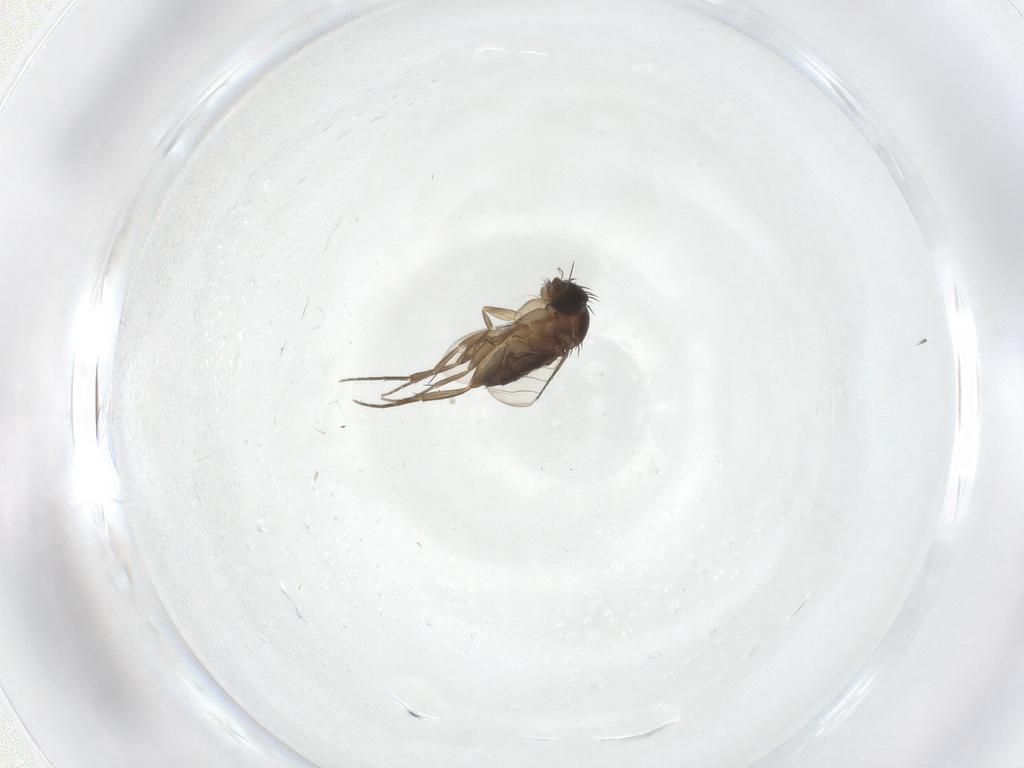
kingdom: Animalia
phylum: Arthropoda
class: Insecta
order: Diptera
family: Phoridae
